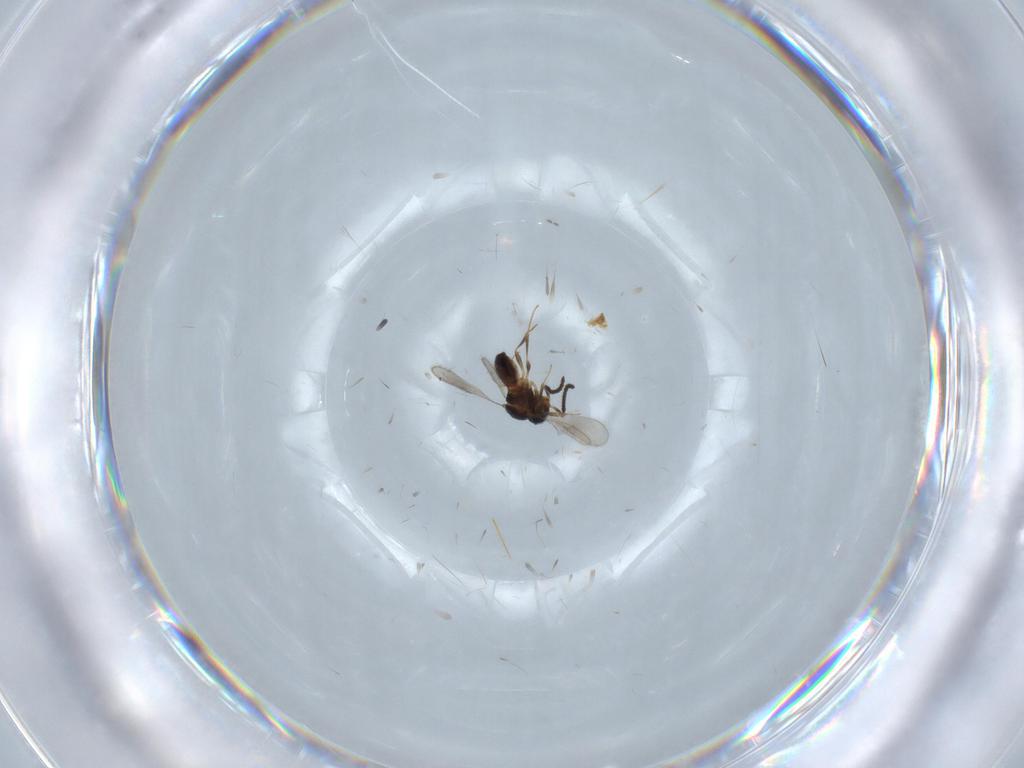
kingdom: Animalia
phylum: Arthropoda
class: Insecta
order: Hymenoptera
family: Scelionidae
